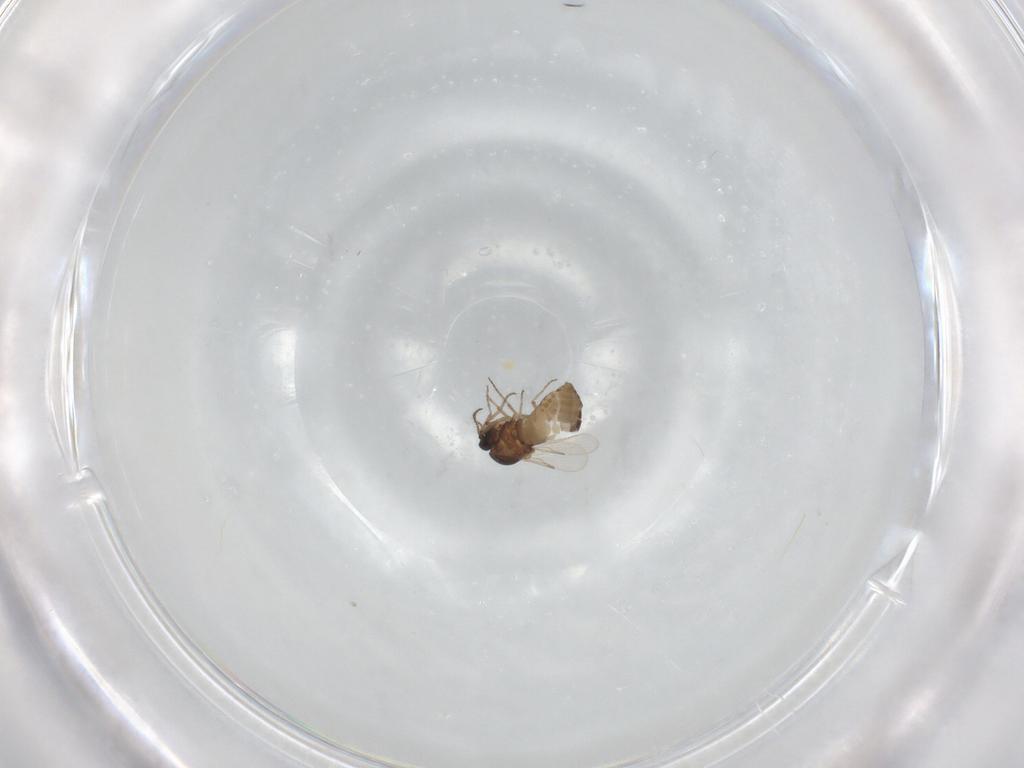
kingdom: Animalia
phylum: Arthropoda
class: Insecta
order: Diptera
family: Ceratopogonidae
